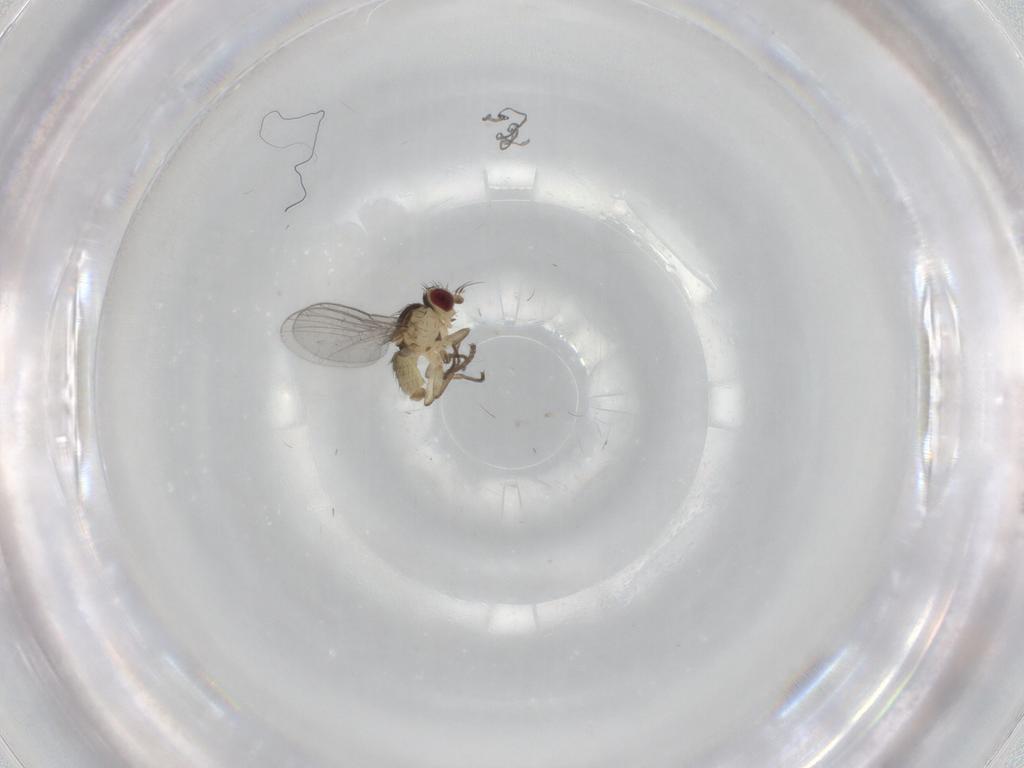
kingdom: Animalia
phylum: Arthropoda
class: Insecta
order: Diptera
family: Agromyzidae
